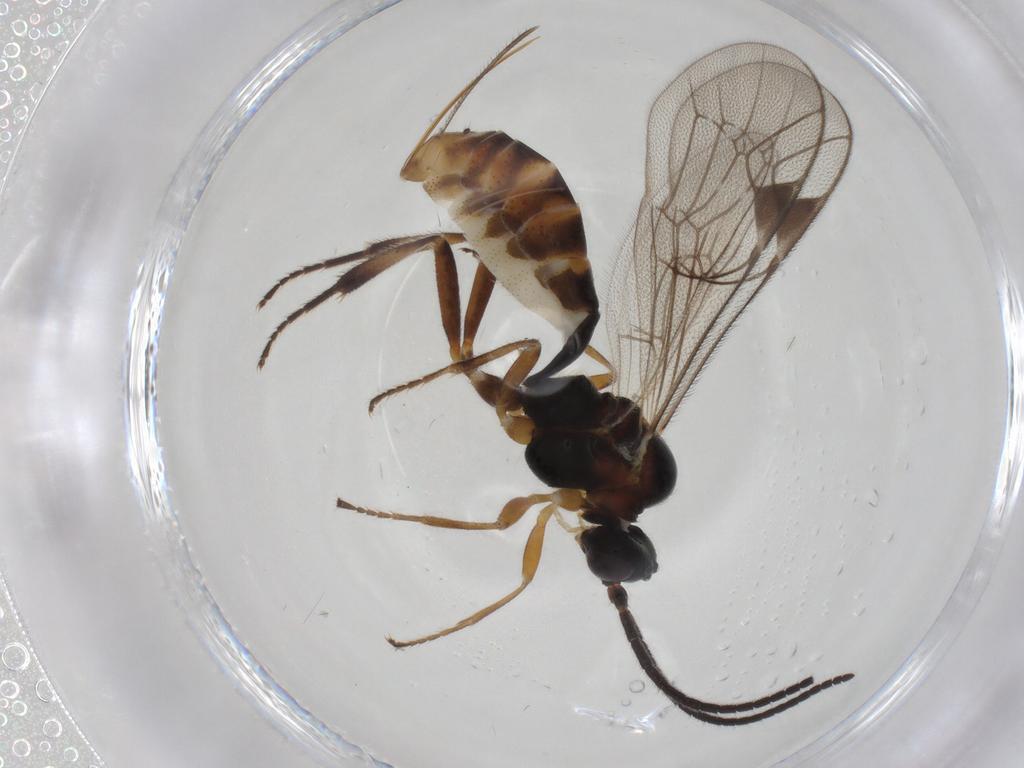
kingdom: Animalia
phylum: Arthropoda
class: Insecta
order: Hymenoptera
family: Ichneumonidae
